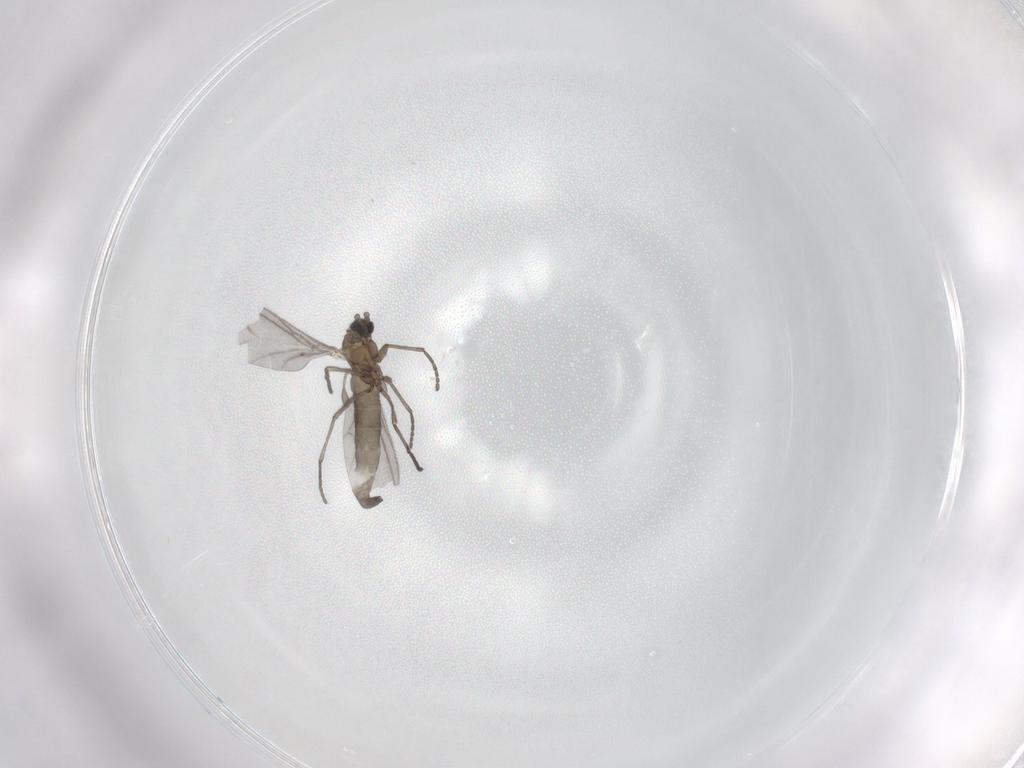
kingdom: Animalia
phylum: Arthropoda
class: Insecta
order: Diptera
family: Sciaridae
